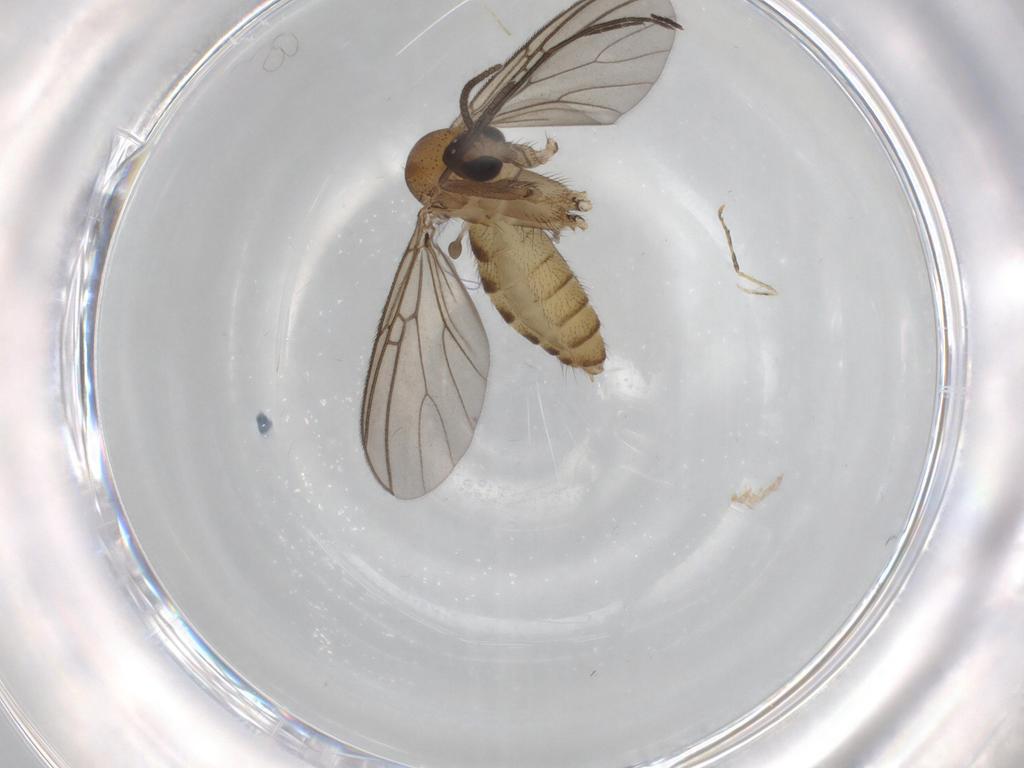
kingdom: Animalia
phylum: Arthropoda
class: Insecta
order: Diptera
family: Cecidomyiidae
